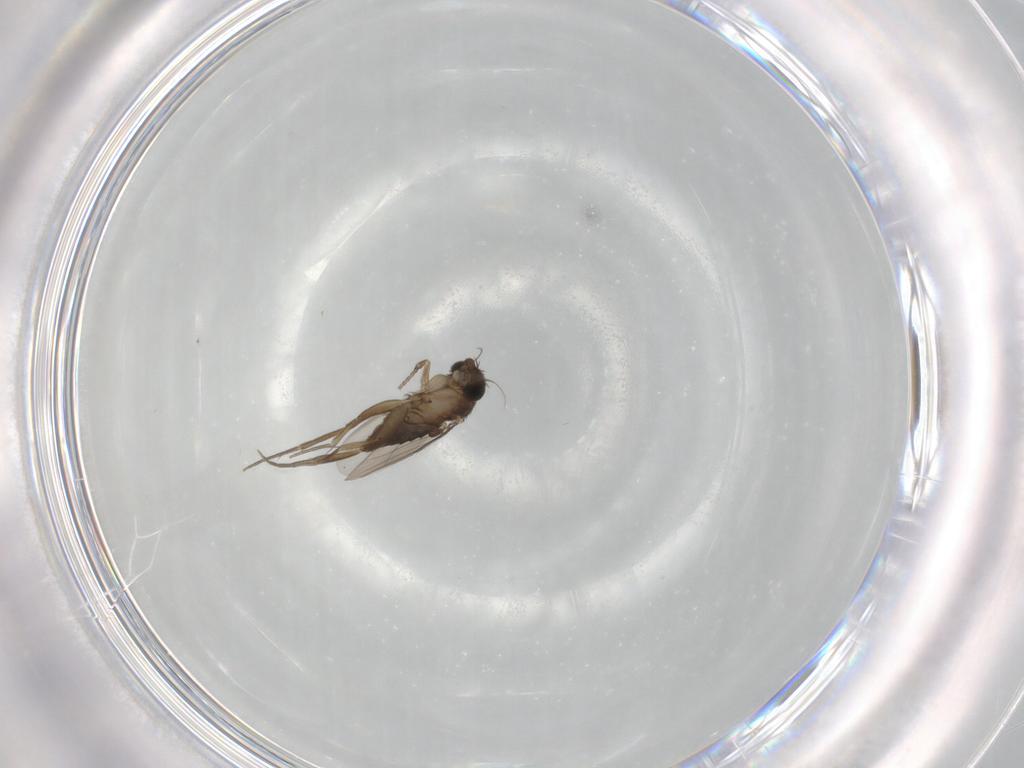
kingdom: Animalia
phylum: Arthropoda
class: Insecta
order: Diptera
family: Phoridae
